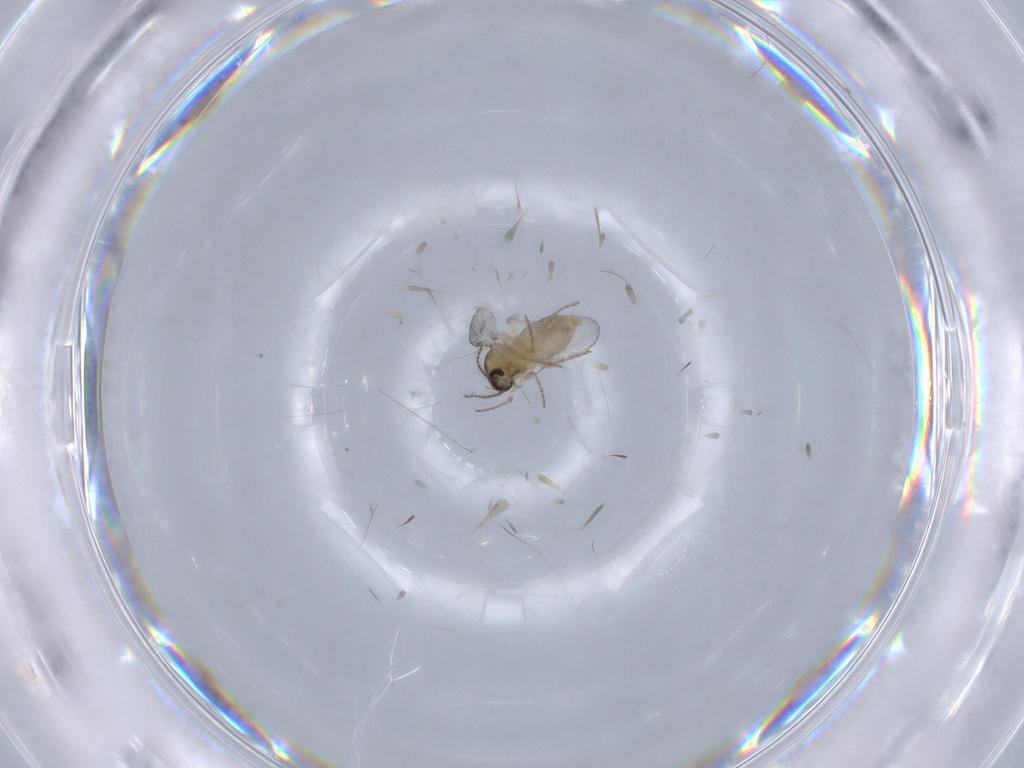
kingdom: Animalia
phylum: Arthropoda
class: Insecta
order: Diptera
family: Ceratopogonidae
